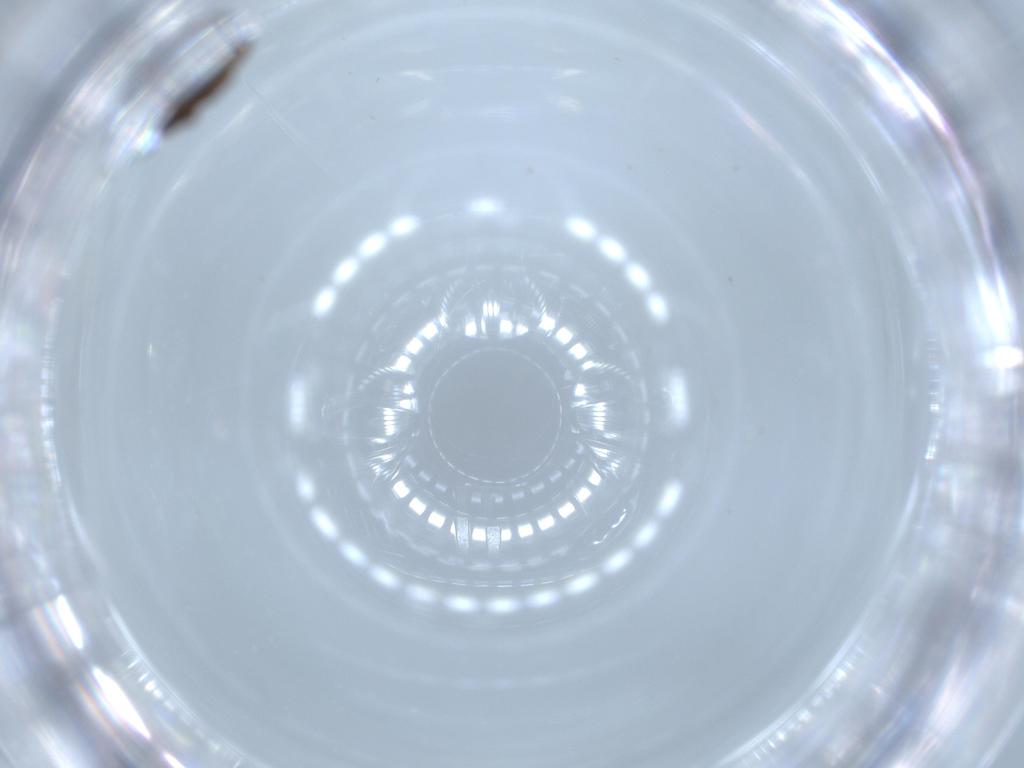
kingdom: Animalia
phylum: Arthropoda
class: Insecta
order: Diptera
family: Sciaridae
